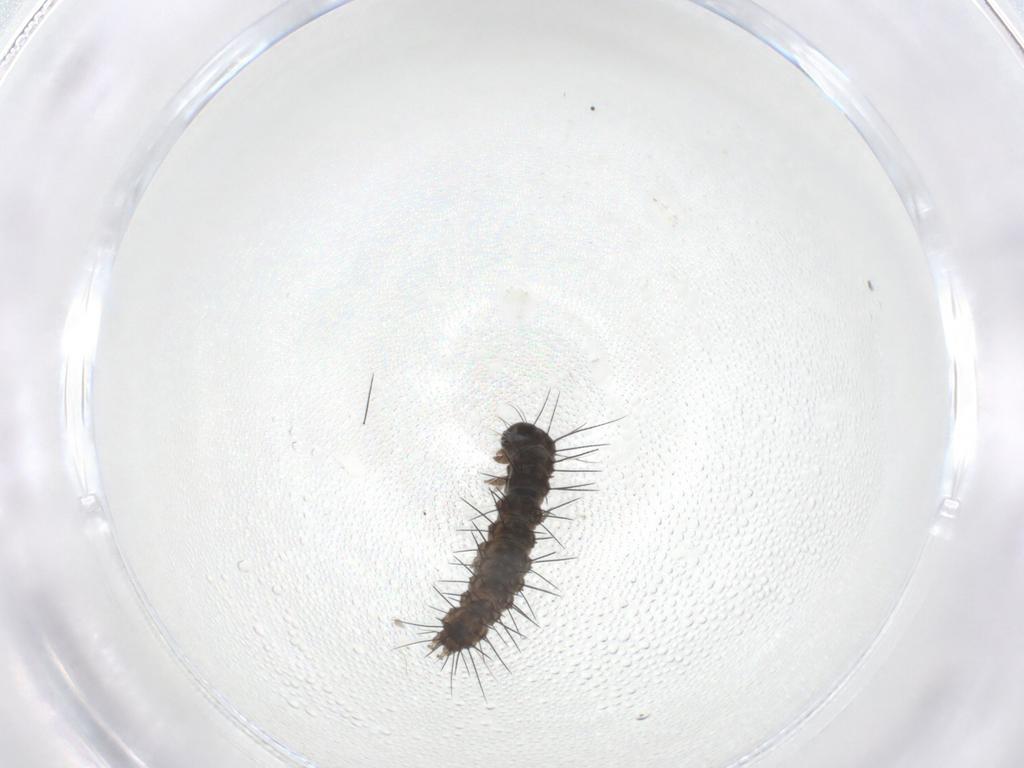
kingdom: Animalia
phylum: Arthropoda
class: Insecta
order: Lepidoptera
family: Erebidae
